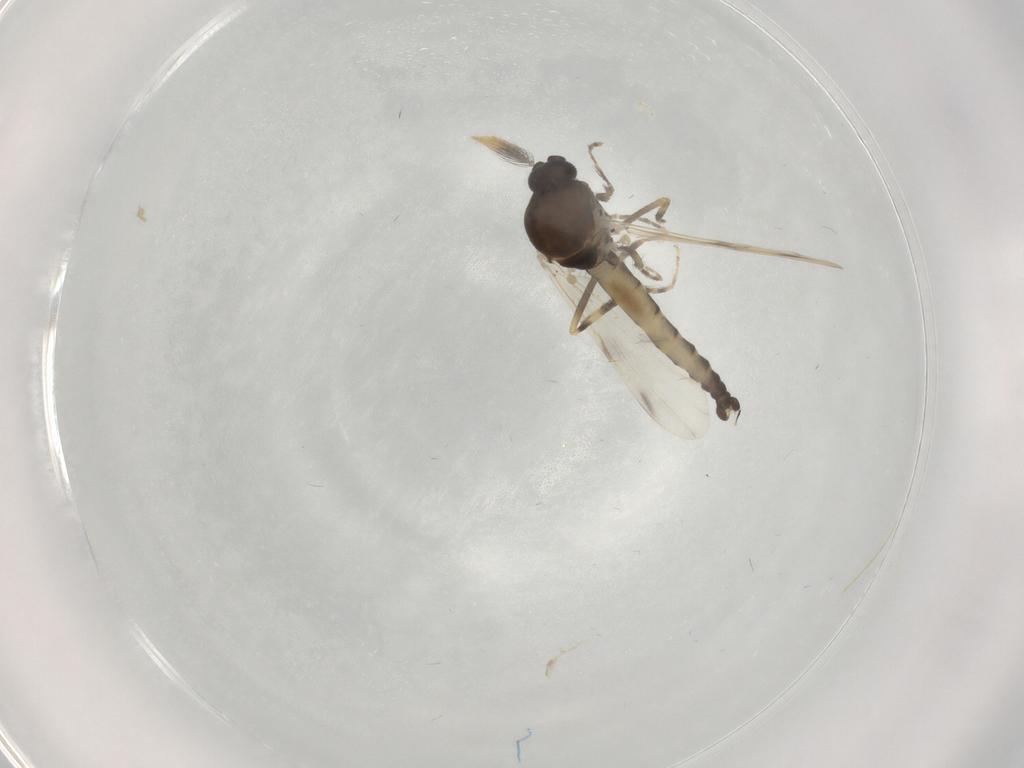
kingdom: Animalia
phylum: Arthropoda
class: Insecta
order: Diptera
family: Ceratopogonidae
